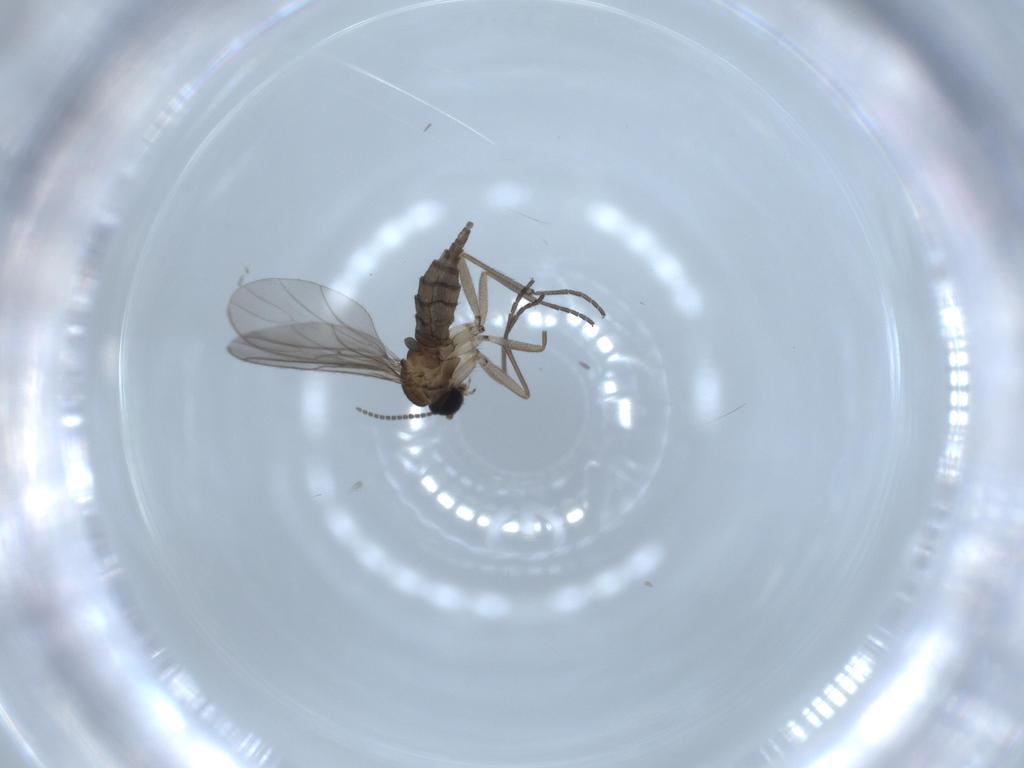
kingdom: Animalia
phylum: Arthropoda
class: Insecta
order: Diptera
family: Sciaridae
